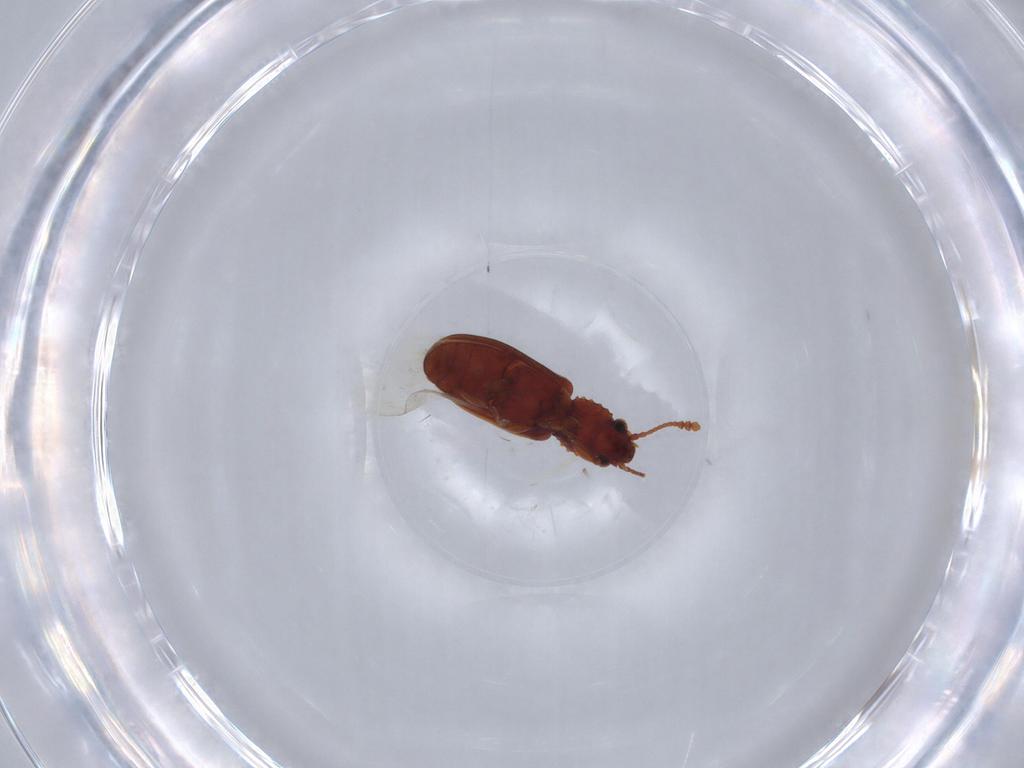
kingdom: Animalia
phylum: Arthropoda
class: Insecta
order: Coleoptera
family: Silvanidae
